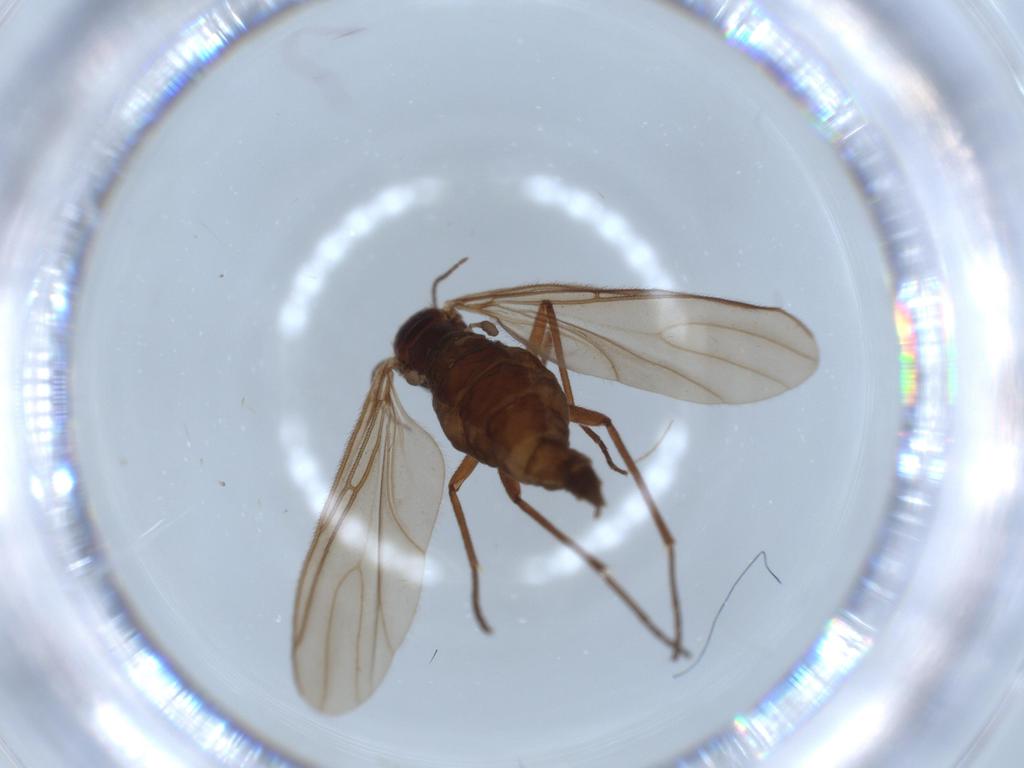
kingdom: Animalia
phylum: Arthropoda
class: Insecta
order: Diptera
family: Sciaridae
